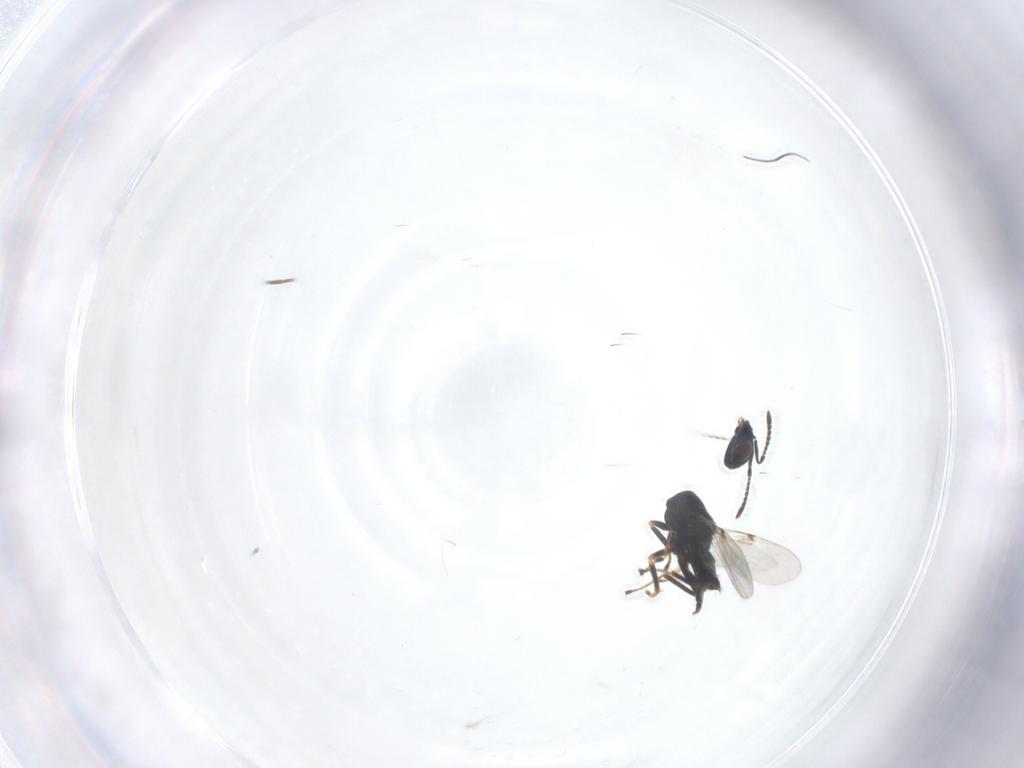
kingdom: Animalia
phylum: Arthropoda
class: Insecta
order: Hymenoptera
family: Encyrtidae
